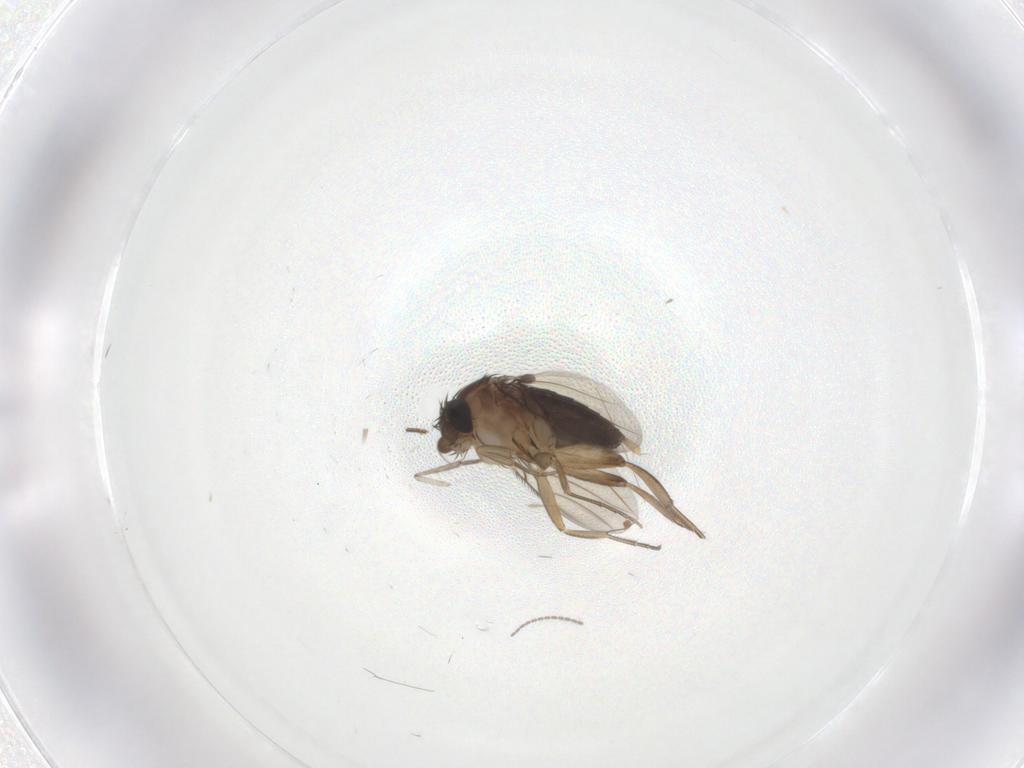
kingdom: Animalia
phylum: Arthropoda
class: Insecta
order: Diptera
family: Phoridae
